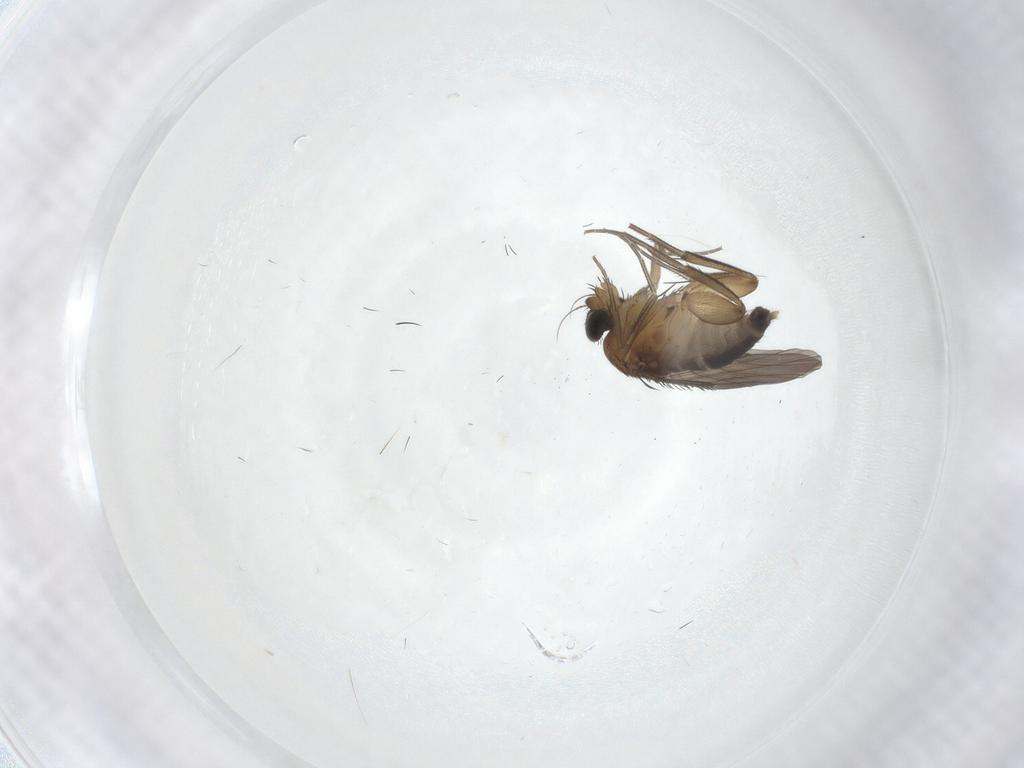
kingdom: Animalia
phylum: Arthropoda
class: Insecta
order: Diptera
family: Phoridae
